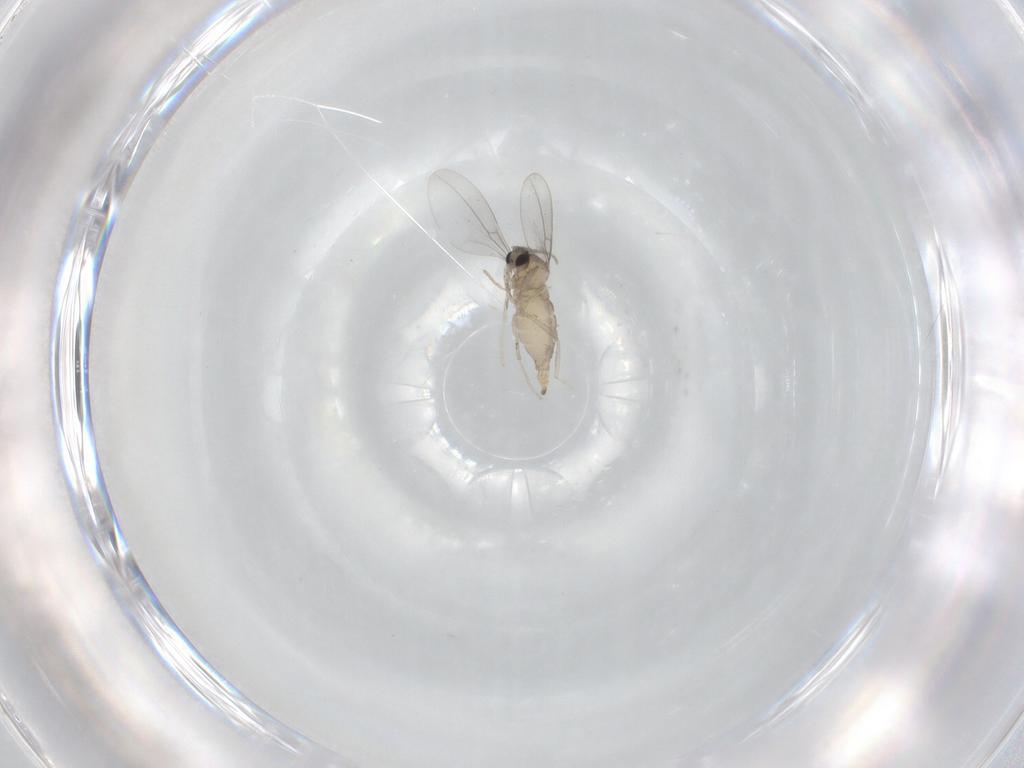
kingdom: Animalia
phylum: Arthropoda
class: Insecta
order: Diptera
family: Cecidomyiidae
